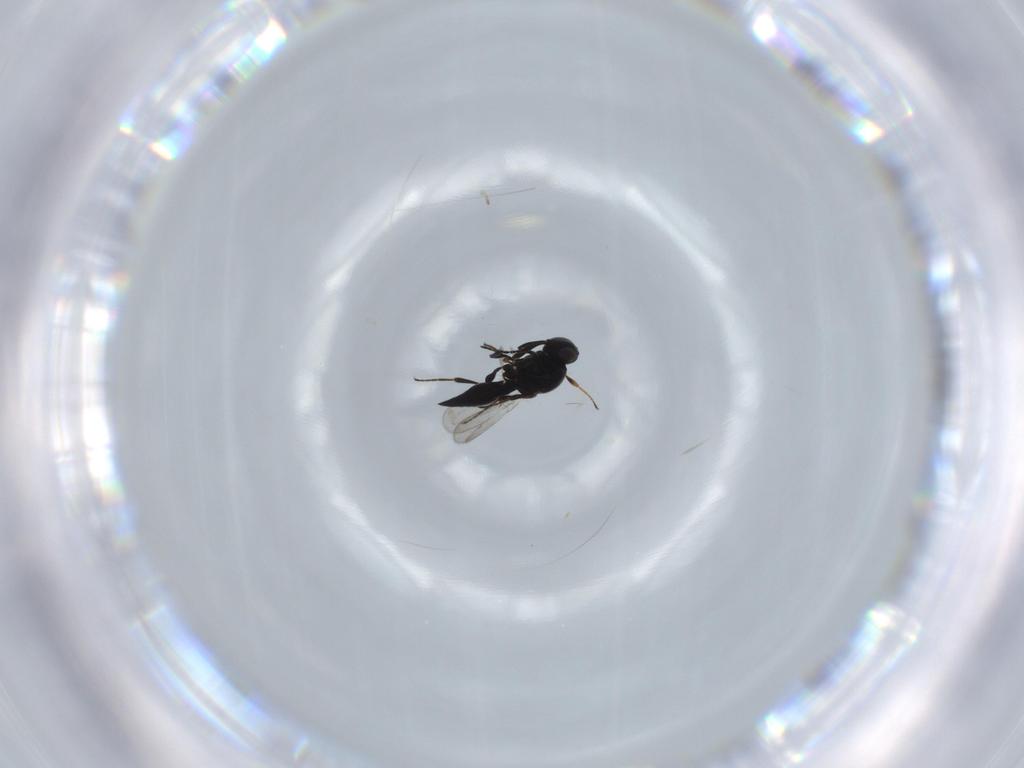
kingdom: Animalia
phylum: Arthropoda
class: Insecta
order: Diptera
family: Mythicomyiidae
